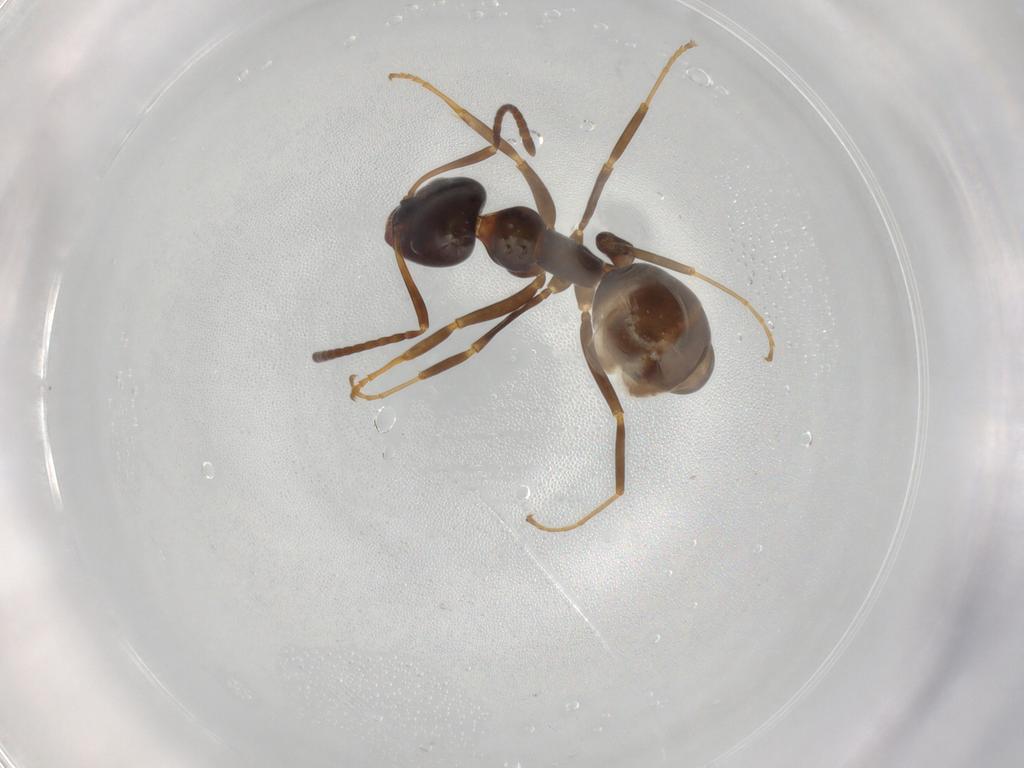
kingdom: Animalia
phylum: Arthropoda
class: Insecta
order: Hymenoptera
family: Formicidae
